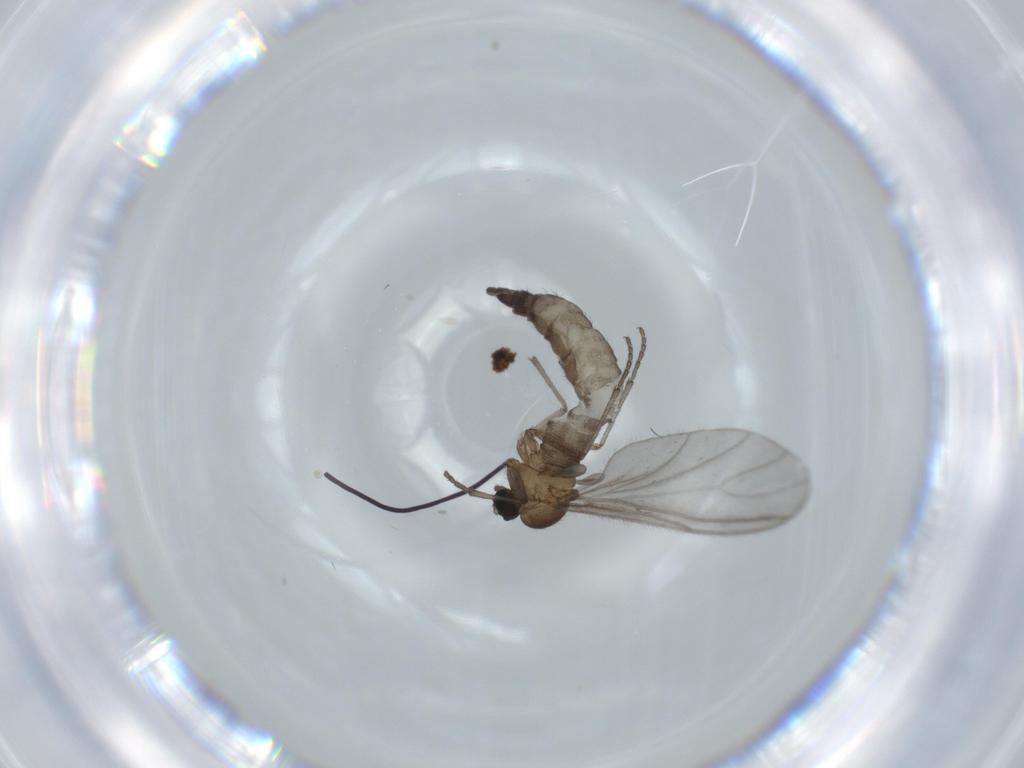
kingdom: Animalia
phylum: Arthropoda
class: Insecta
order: Diptera
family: Sciaridae
